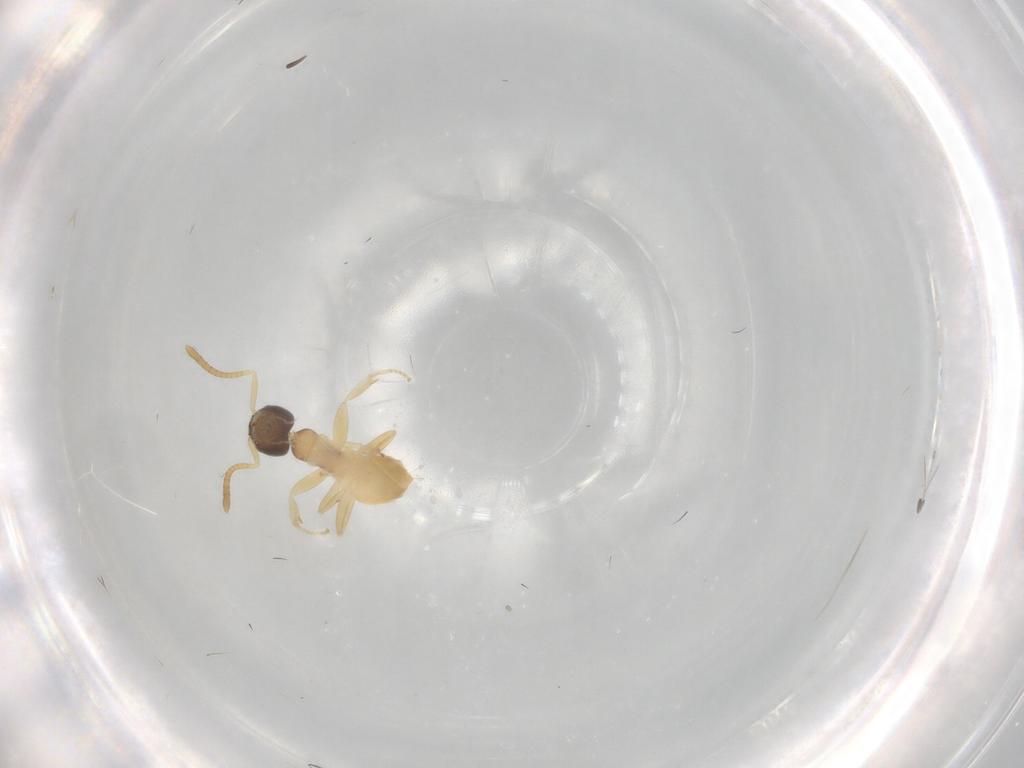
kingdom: Animalia
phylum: Arthropoda
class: Insecta
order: Hymenoptera
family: Formicidae
